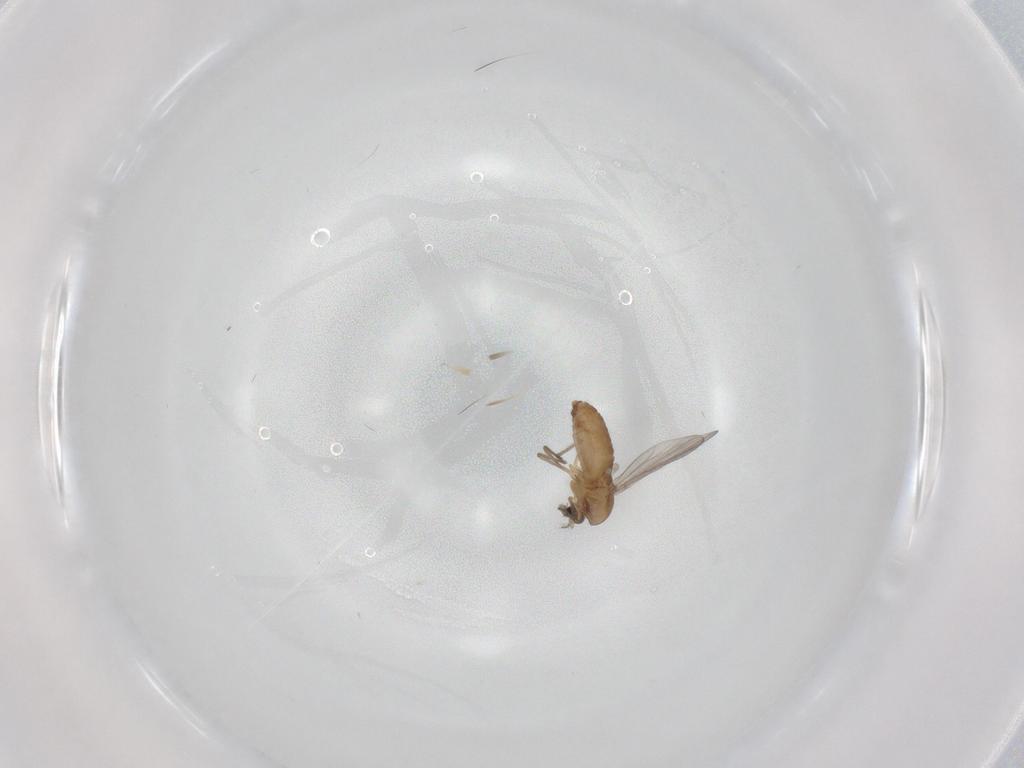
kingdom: Animalia
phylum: Arthropoda
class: Insecta
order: Diptera
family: Chironomidae
